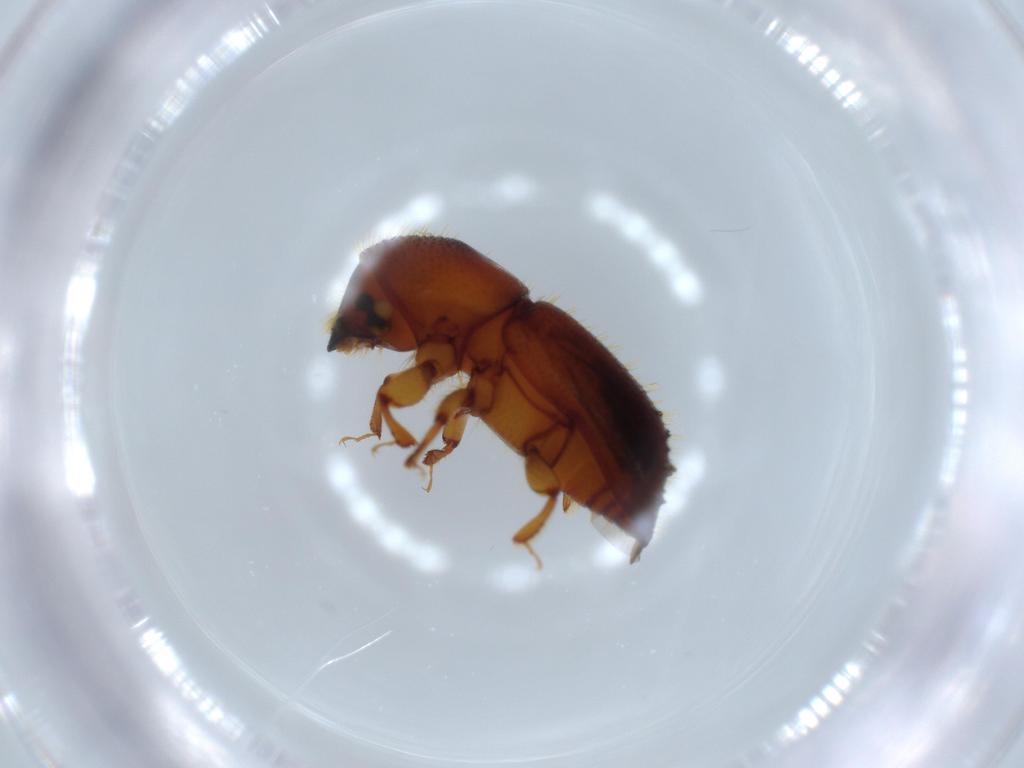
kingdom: Animalia
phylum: Arthropoda
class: Insecta
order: Coleoptera
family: Curculionidae
